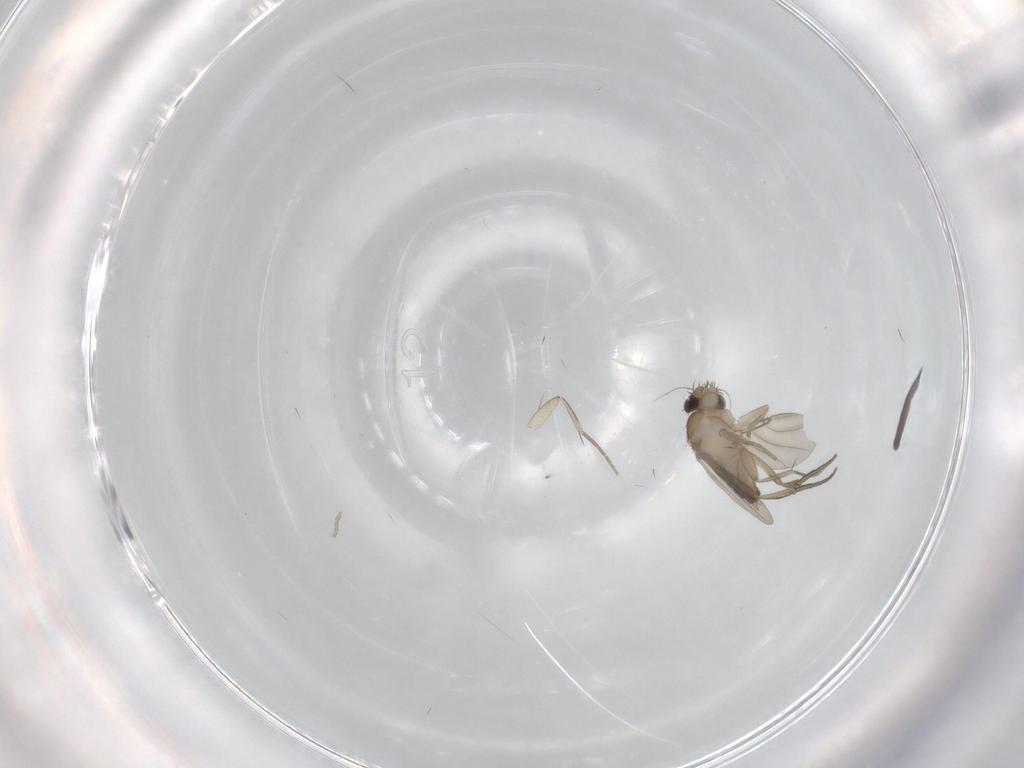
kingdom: Animalia
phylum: Arthropoda
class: Insecta
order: Diptera
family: Phoridae
